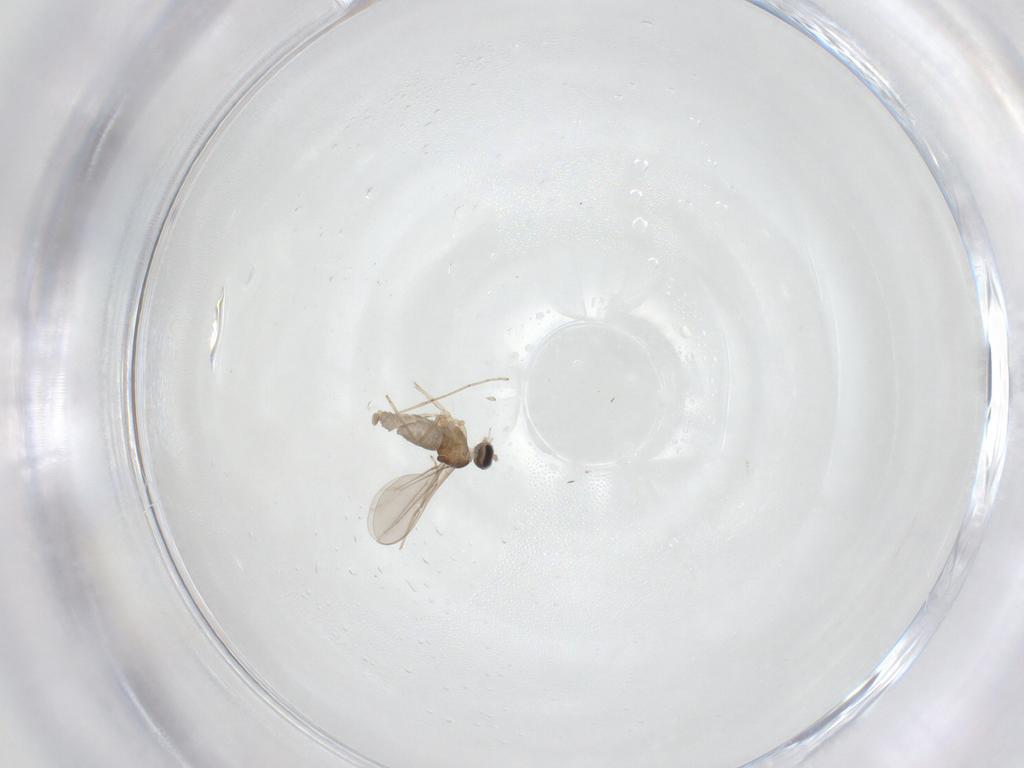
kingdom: Animalia
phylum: Arthropoda
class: Insecta
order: Diptera
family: Cecidomyiidae
